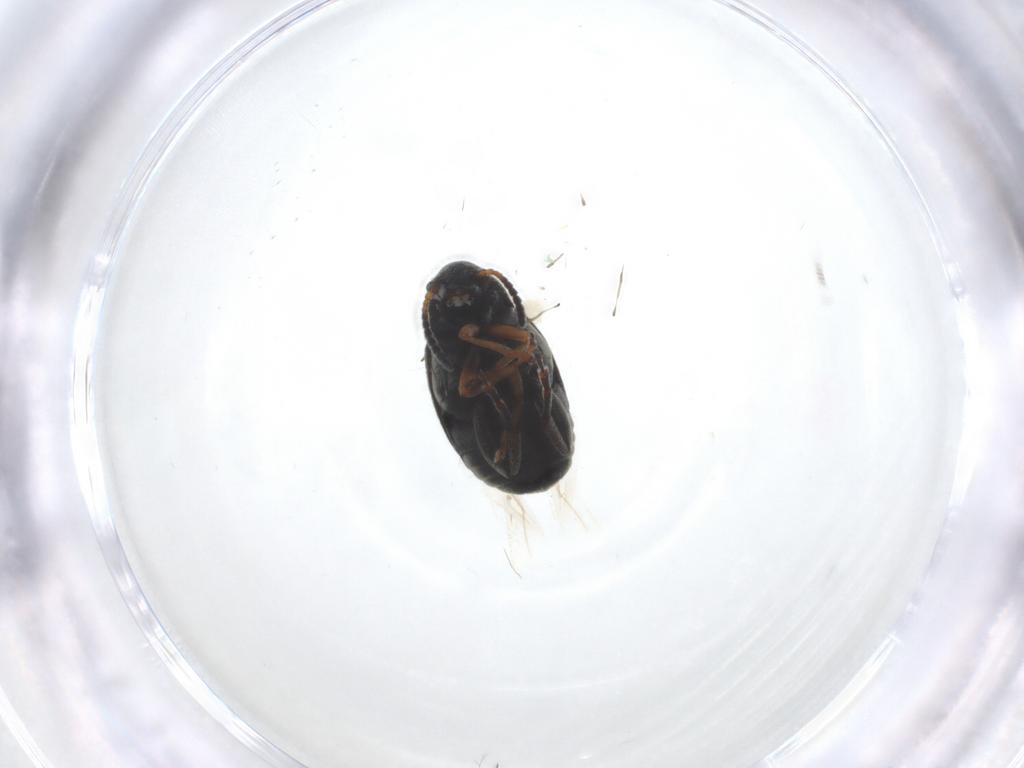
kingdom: Animalia
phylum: Arthropoda
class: Insecta
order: Coleoptera
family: Chrysomelidae
